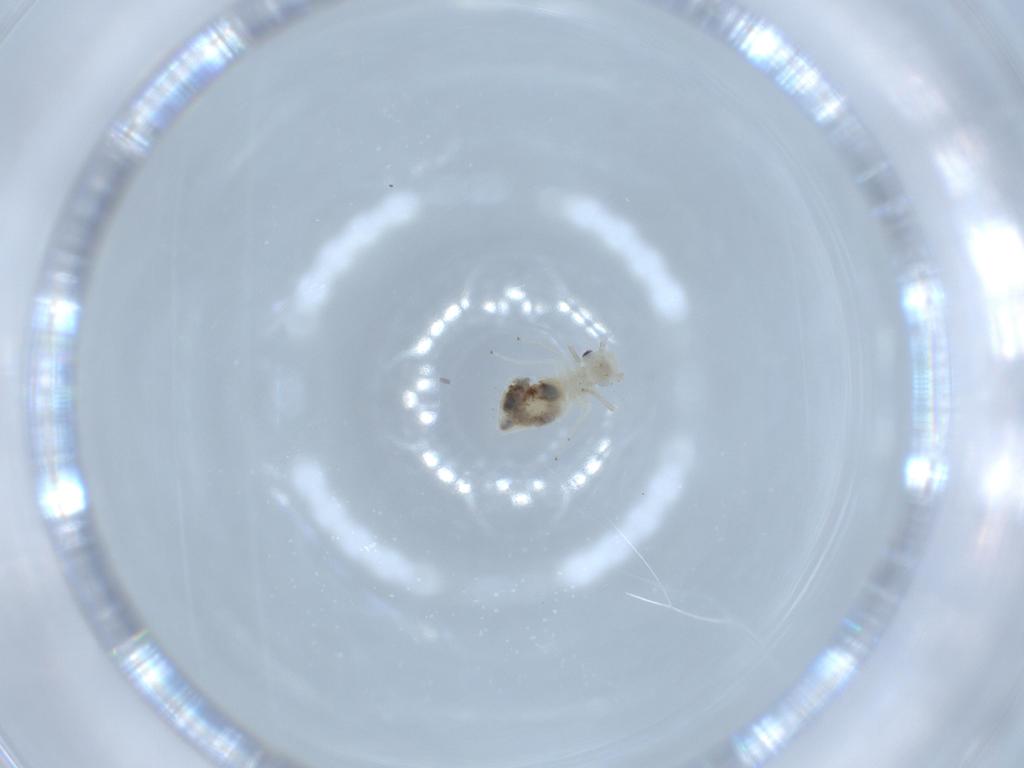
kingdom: Animalia
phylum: Arthropoda
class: Insecta
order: Psocodea
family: Caeciliusidae
